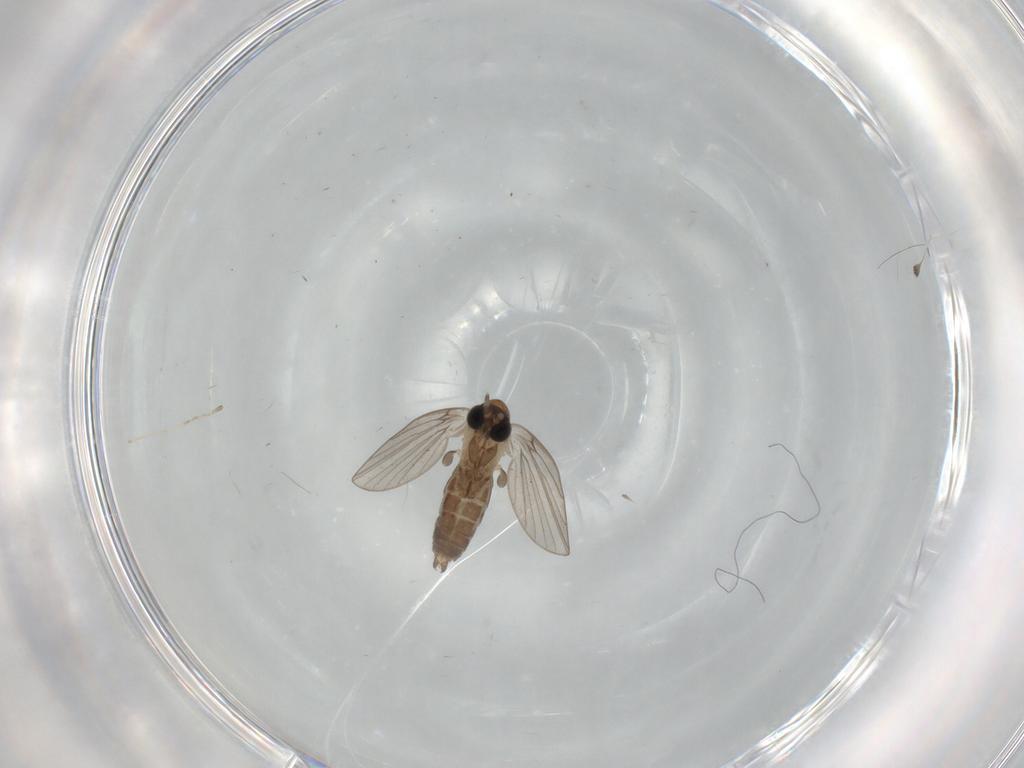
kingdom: Animalia
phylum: Arthropoda
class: Insecta
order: Diptera
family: Psychodidae
